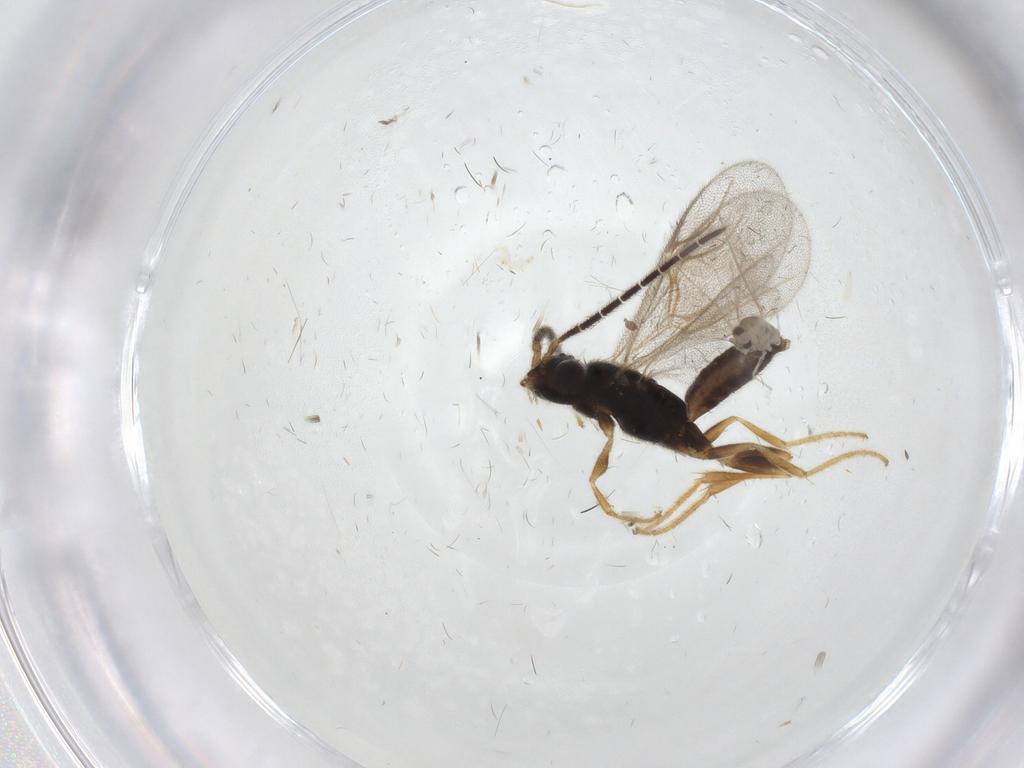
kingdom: Animalia
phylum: Arthropoda
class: Insecta
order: Hymenoptera
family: Dryinidae
